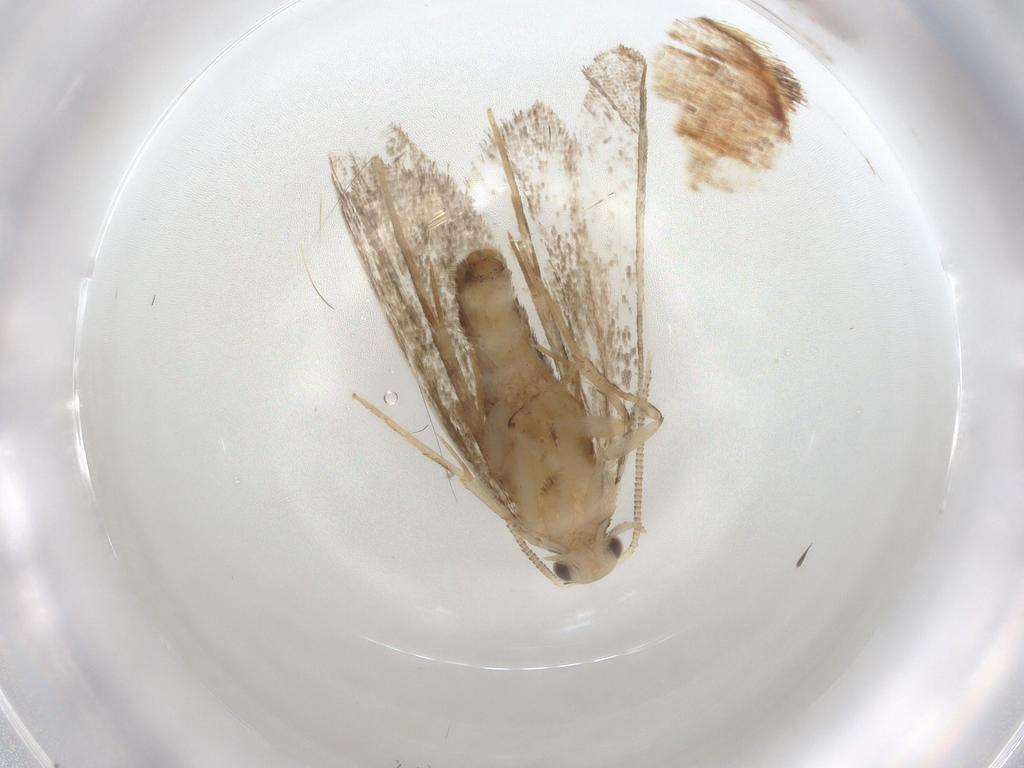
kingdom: Animalia
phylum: Arthropoda
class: Insecta
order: Lepidoptera
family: Dryadaulidae
